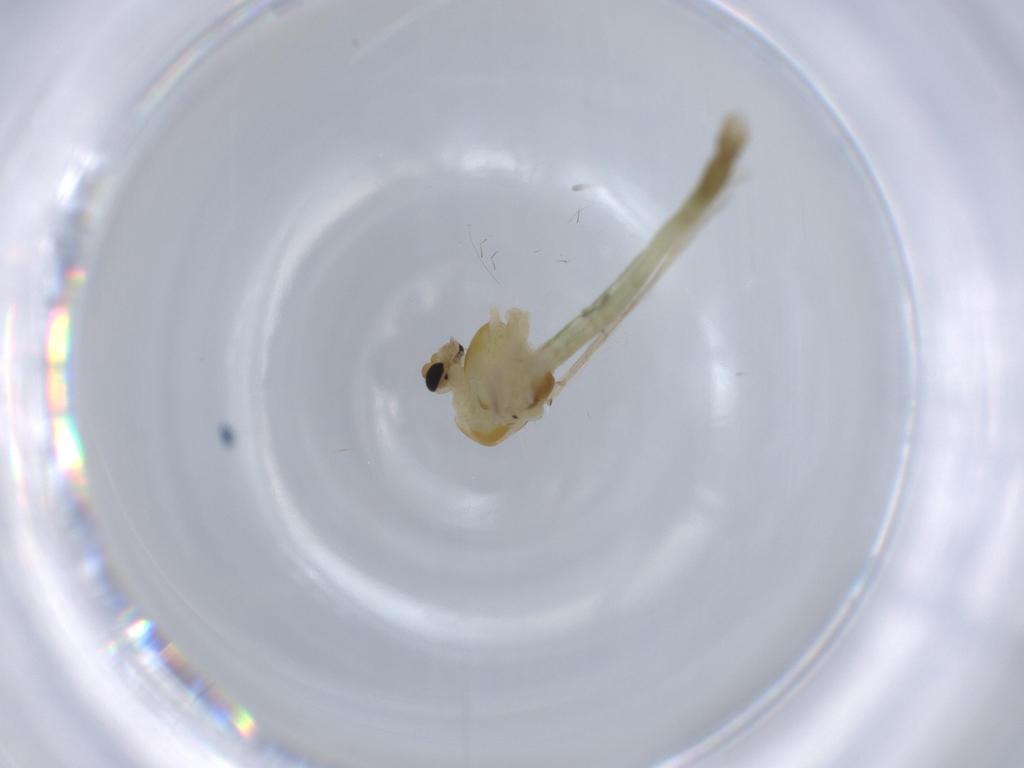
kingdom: Animalia
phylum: Arthropoda
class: Insecta
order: Diptera
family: Chironomidae
